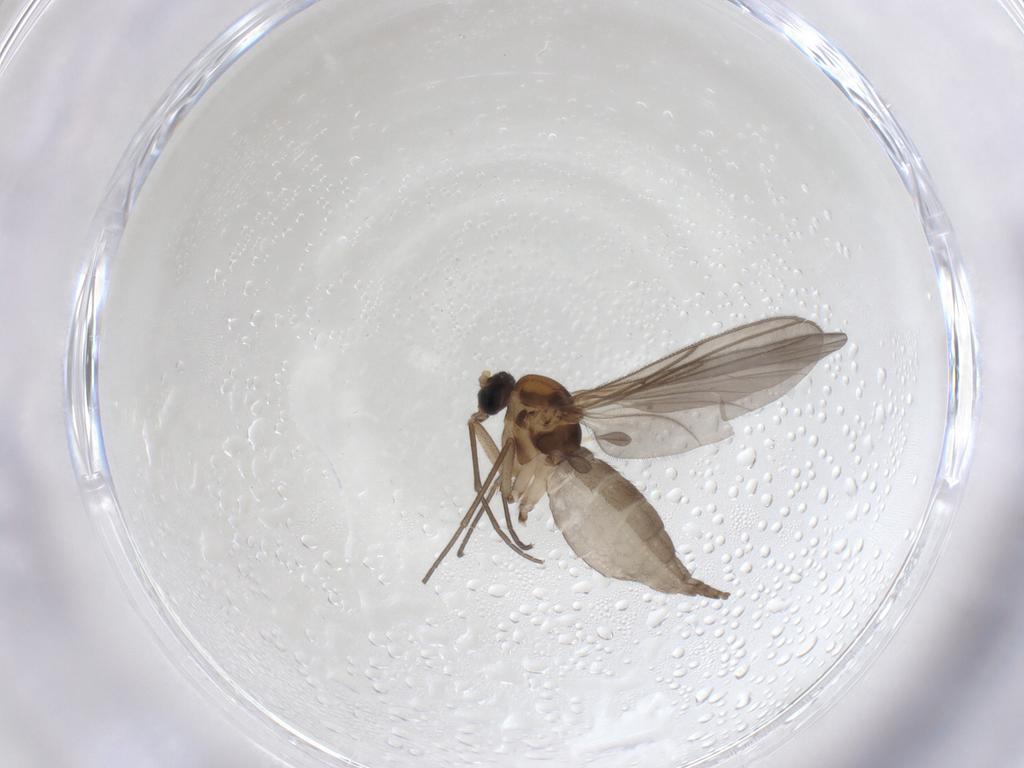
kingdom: Animalia
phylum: Arthropoda
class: Insecta
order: Diptera
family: Sciaridae
